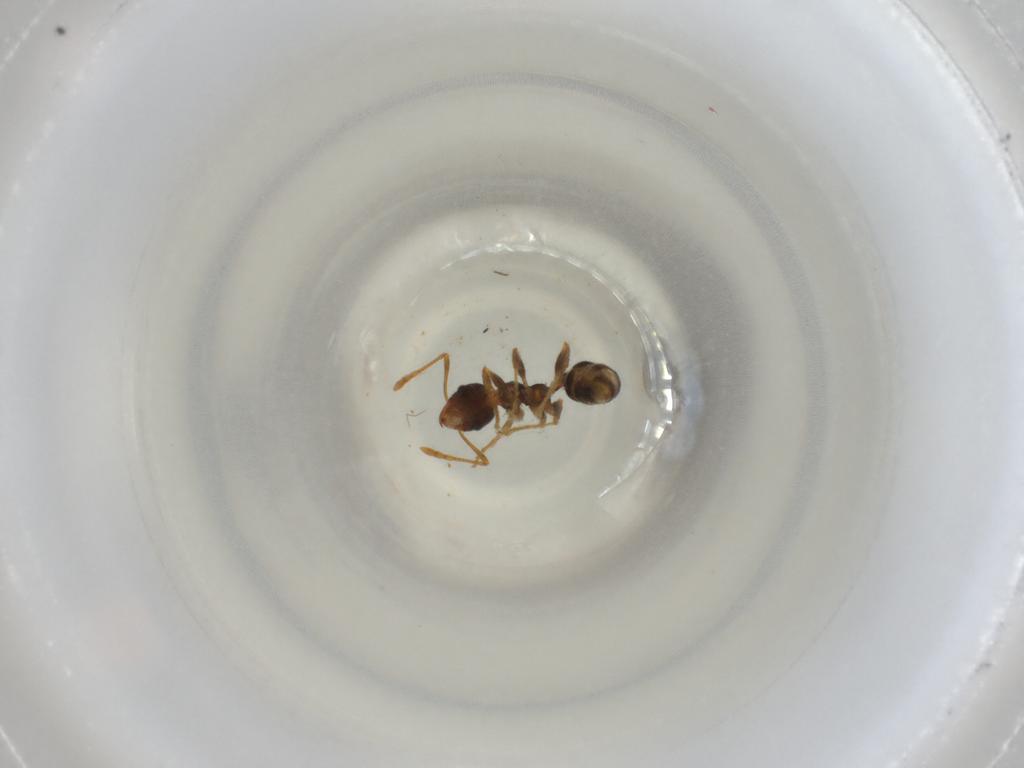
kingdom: Animalia
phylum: Arthropoda
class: Insecta
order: Hymenoptera
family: Formicidae
